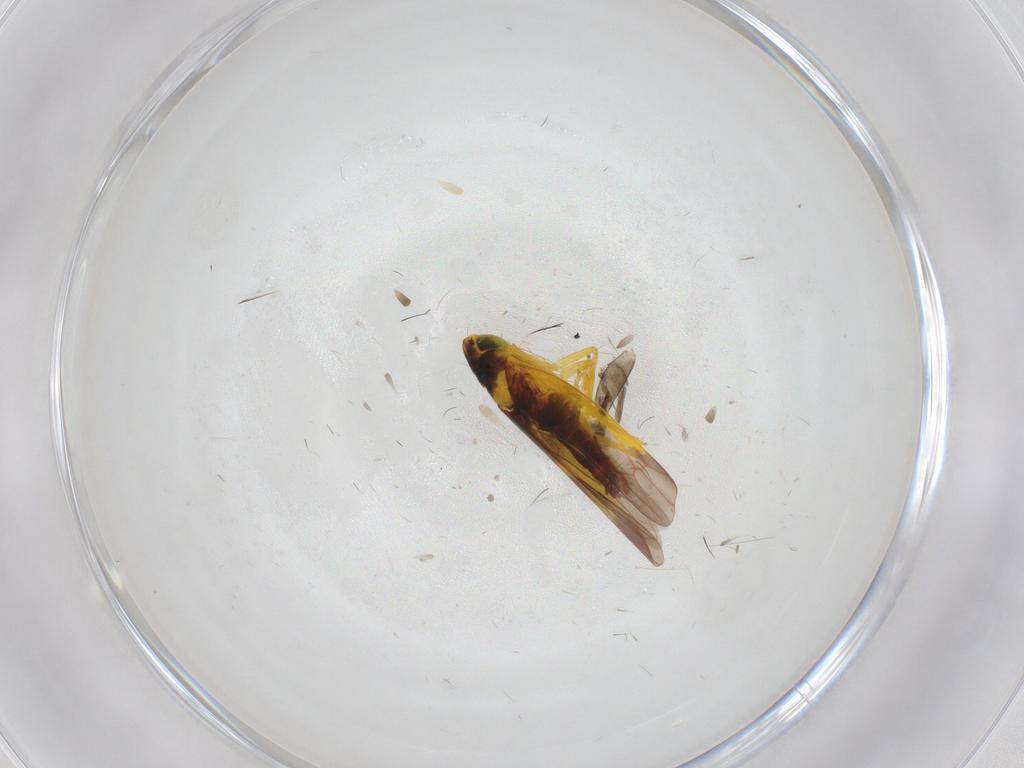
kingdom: Animalia
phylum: Arthropoda
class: Insecta
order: Hemiptera
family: Cicadellidae
